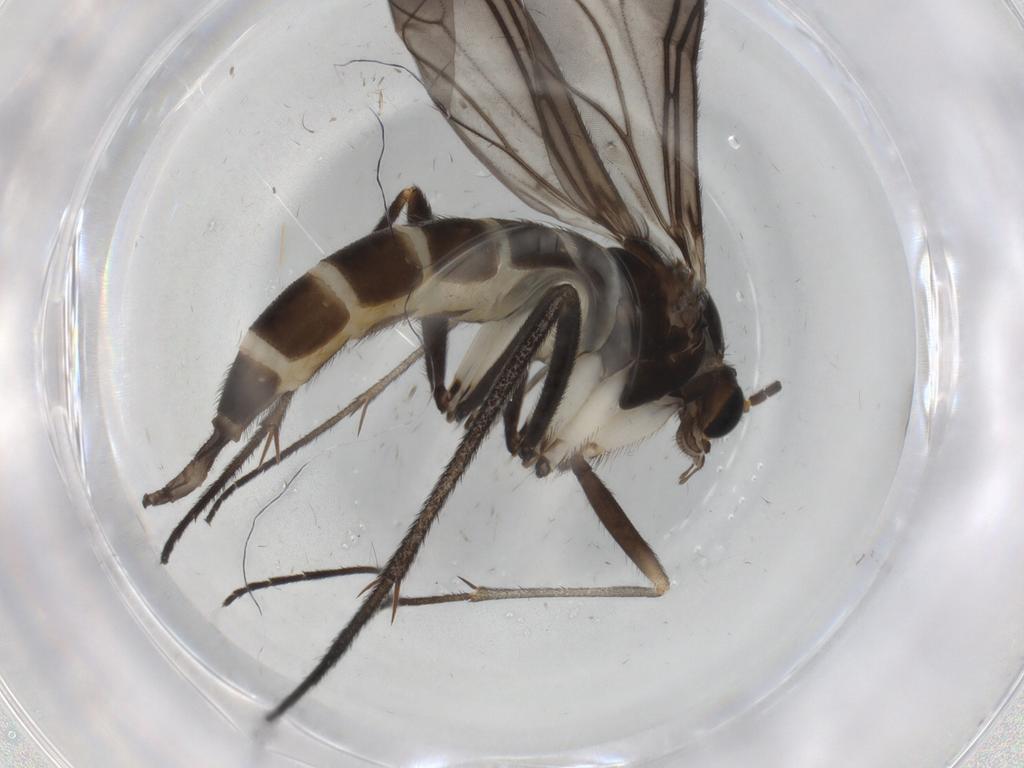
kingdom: Animalia
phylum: Arthropoda
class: Insecta
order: Diptera
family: Sciaridae
